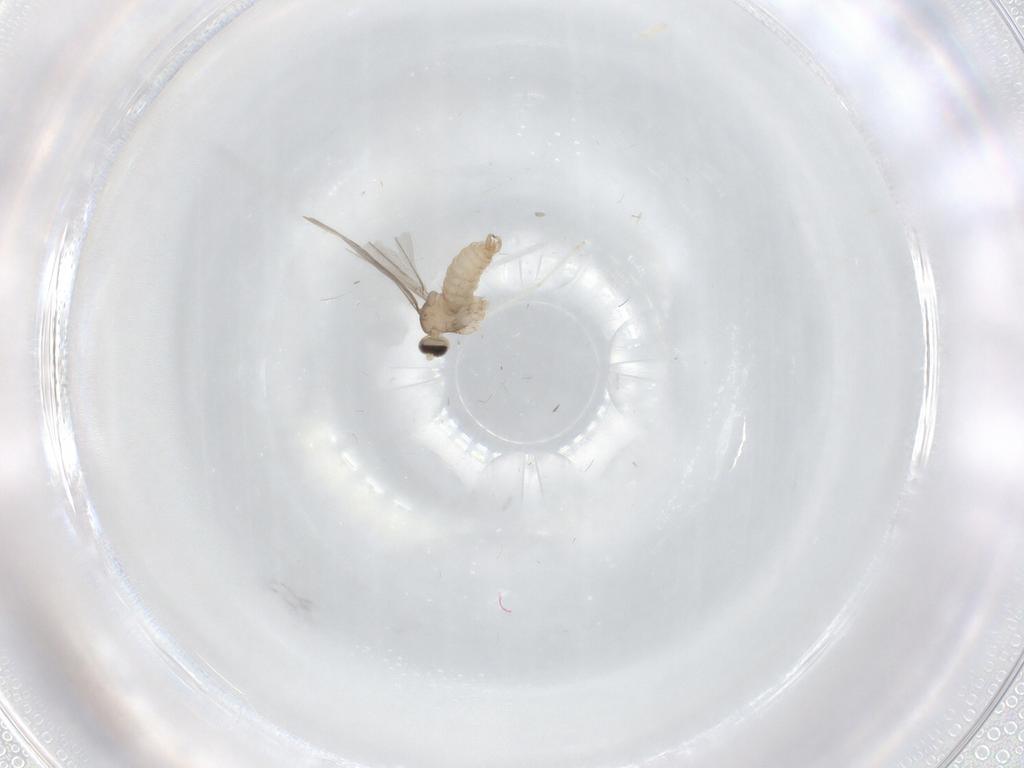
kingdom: Animalia
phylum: Arthropoda
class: Insecta
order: Diptera
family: Cecidomyiidae
